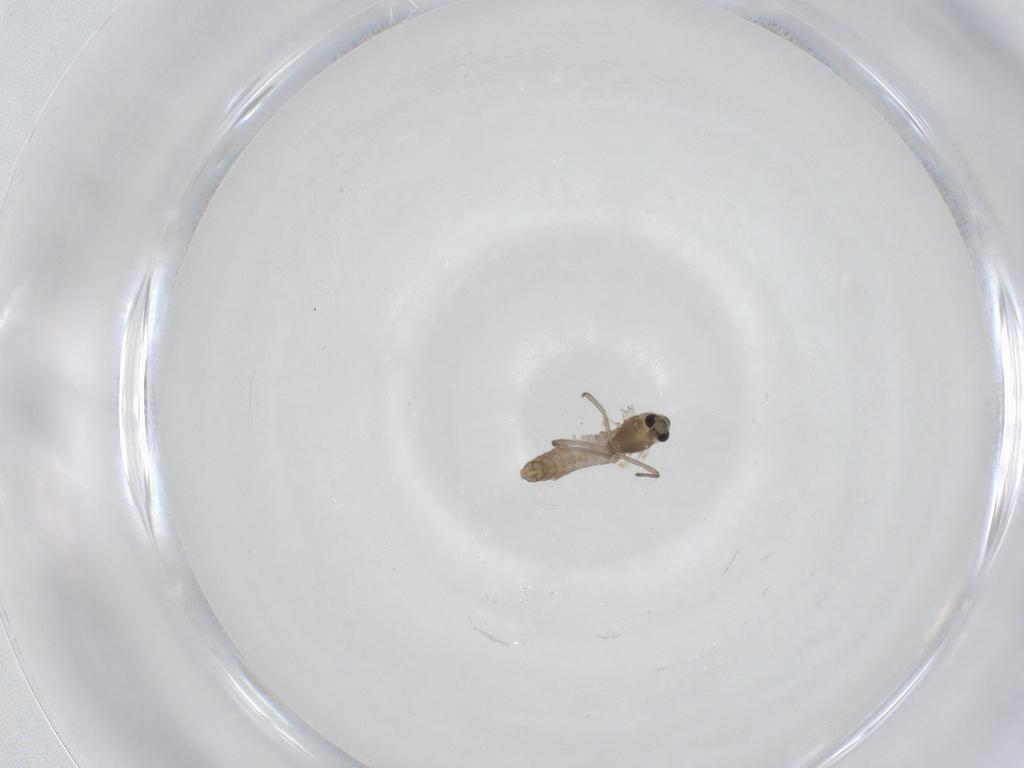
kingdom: Animalia
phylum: Arthropoda
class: Insecta
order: Diptera
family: Chironomidae
